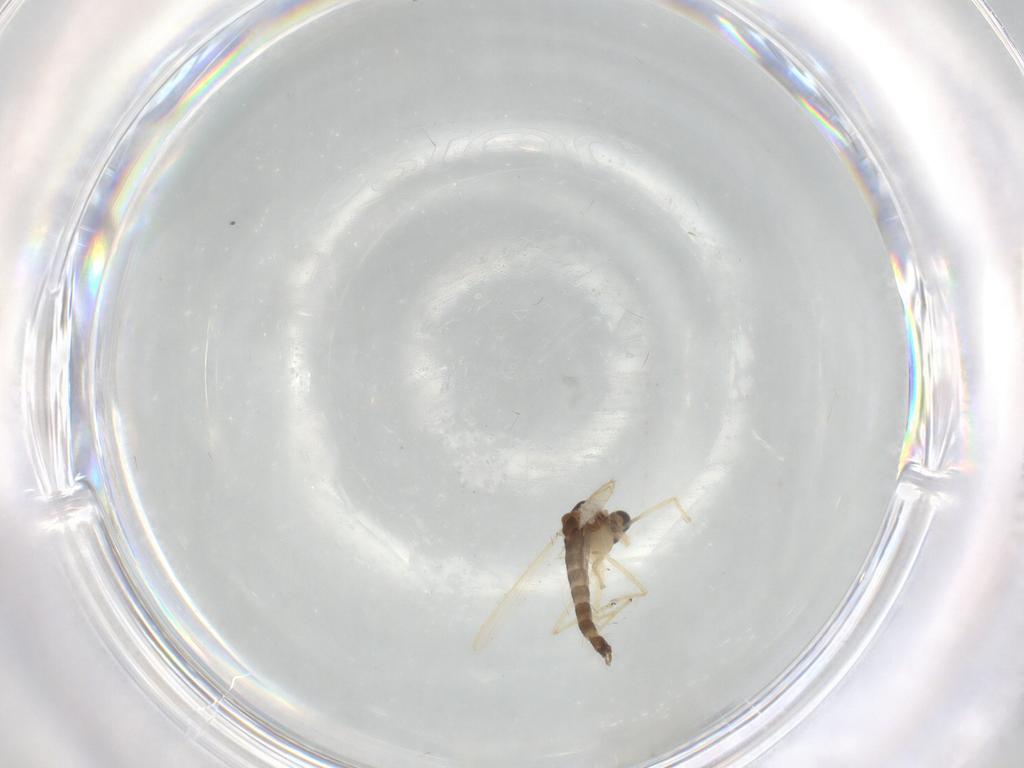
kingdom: Animalia
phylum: Arthropoda
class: Insecta
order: Diptera
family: Chironomidae
